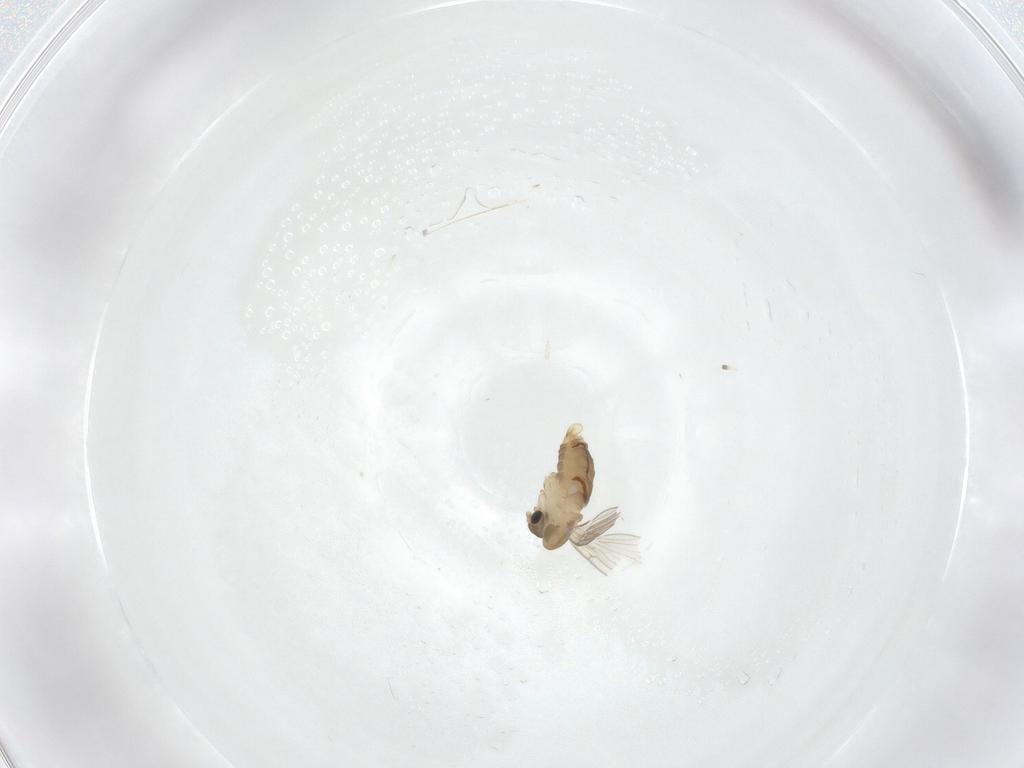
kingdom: Animalia
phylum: Arthropoda
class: Insecta
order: Diptera
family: Psychodidae
